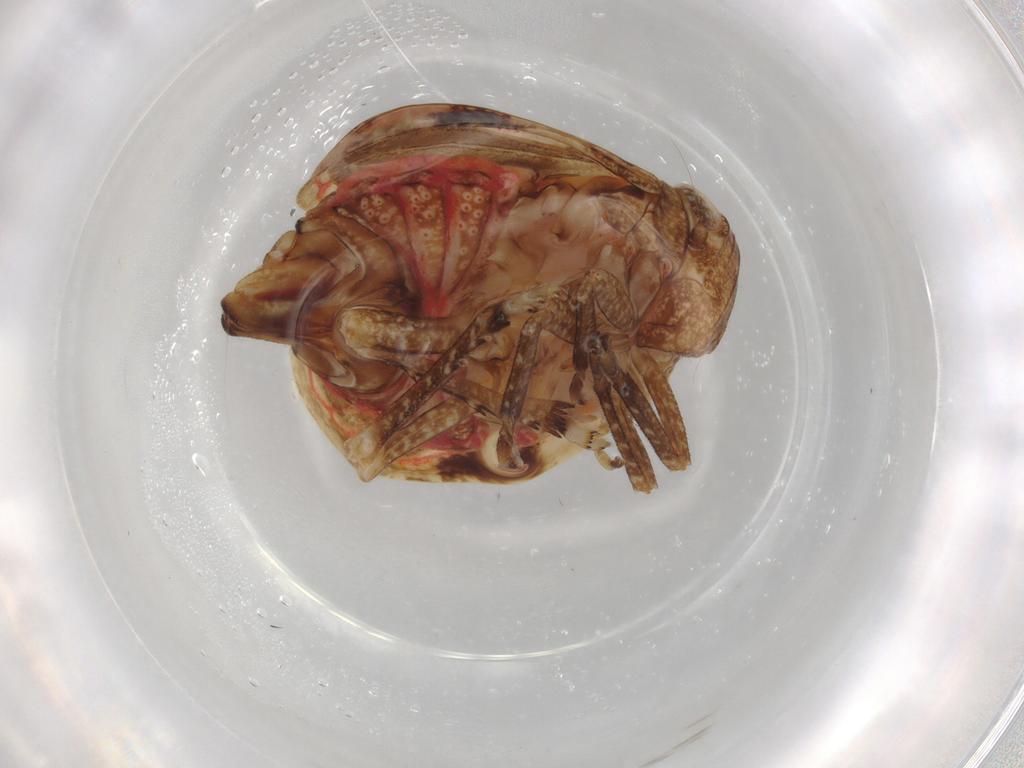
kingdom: Animalia
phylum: Arthropoda
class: Insecta
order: Hemiptera
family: Tropiduchidae
